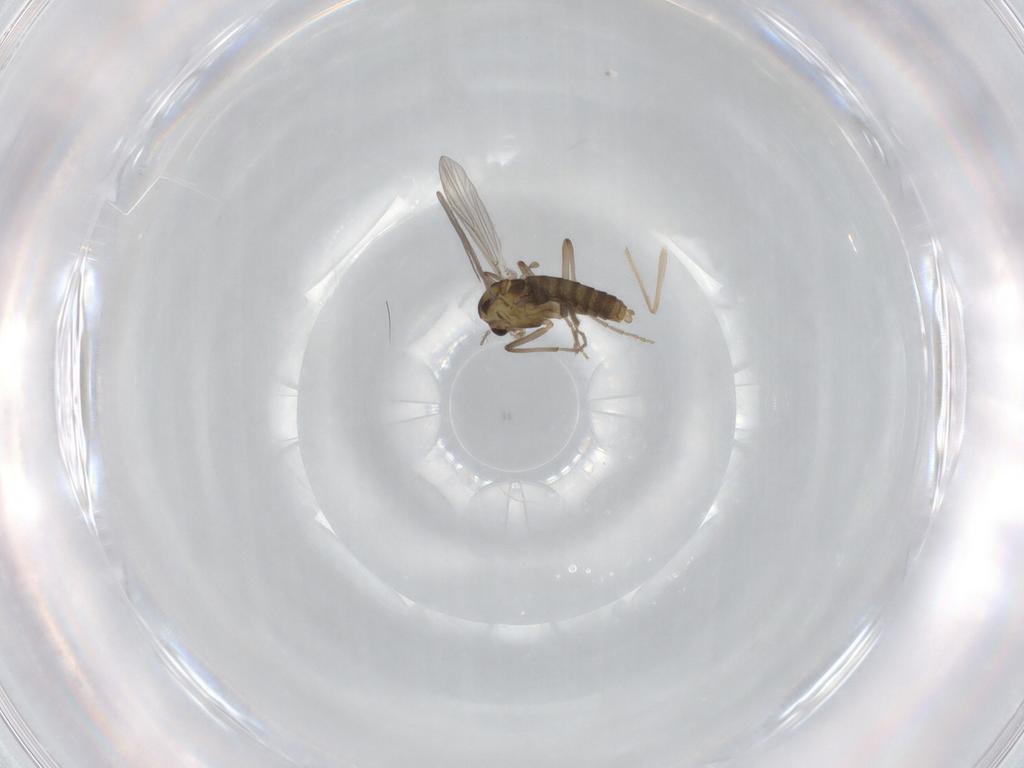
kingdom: Animalia
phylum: Arthropoda
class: Insecta
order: Diptera
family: Chironomidae
